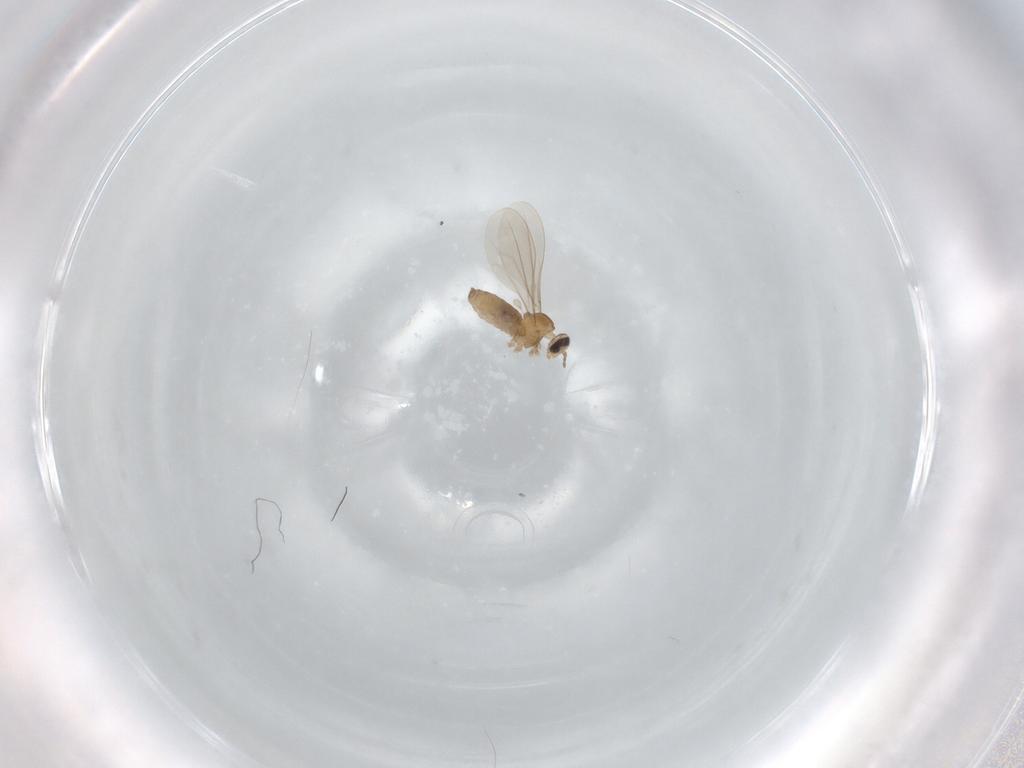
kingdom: Animalia
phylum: Arthropoda
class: Insecta
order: Diptera
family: Cecidomyiidae
